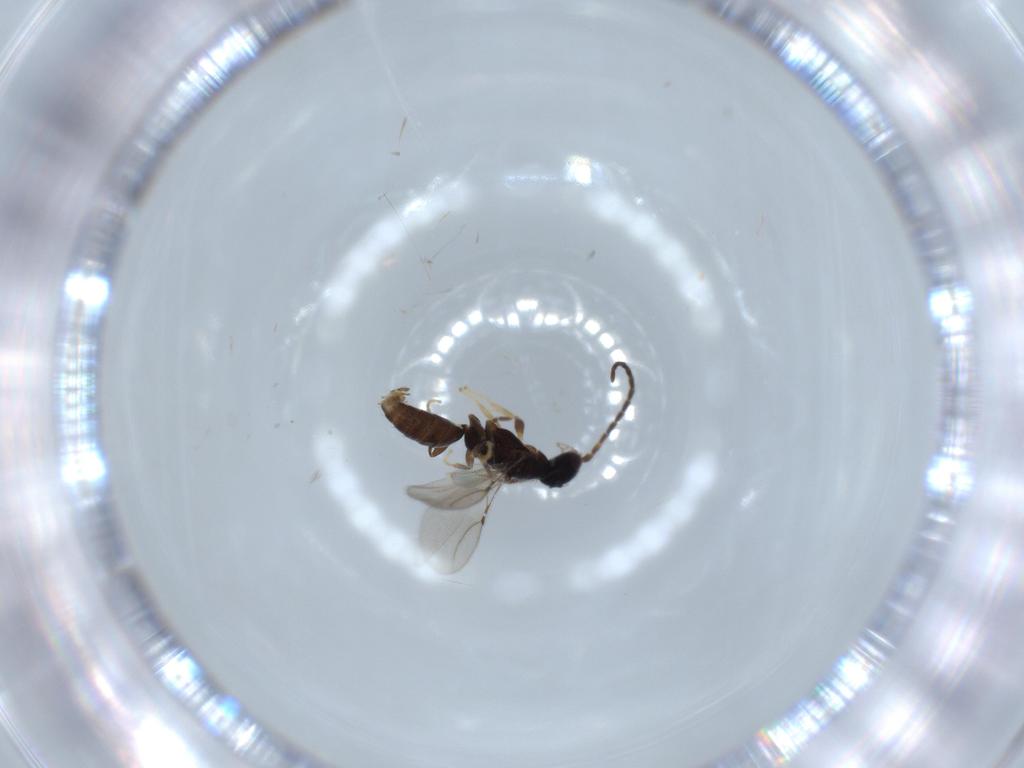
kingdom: Animalia
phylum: Arthropoda
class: Insecta
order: Hymenoptera
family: Bethylidae
